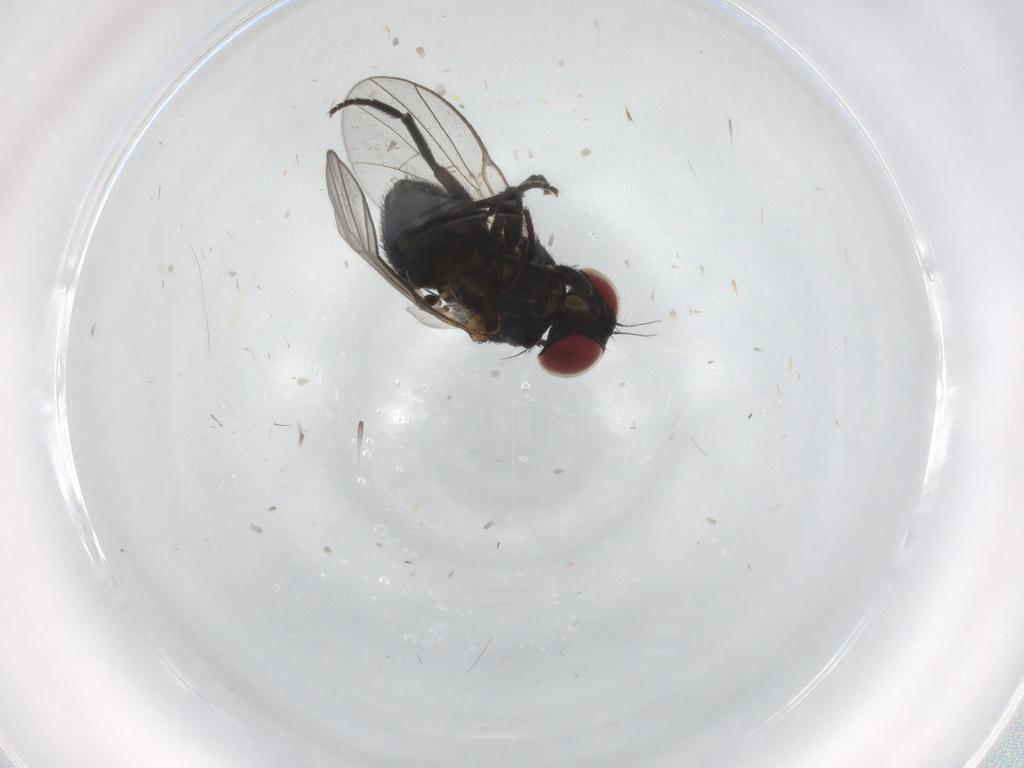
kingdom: Animalia
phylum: Arthropoda
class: Insecta
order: Diptera
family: Agromyzidae
